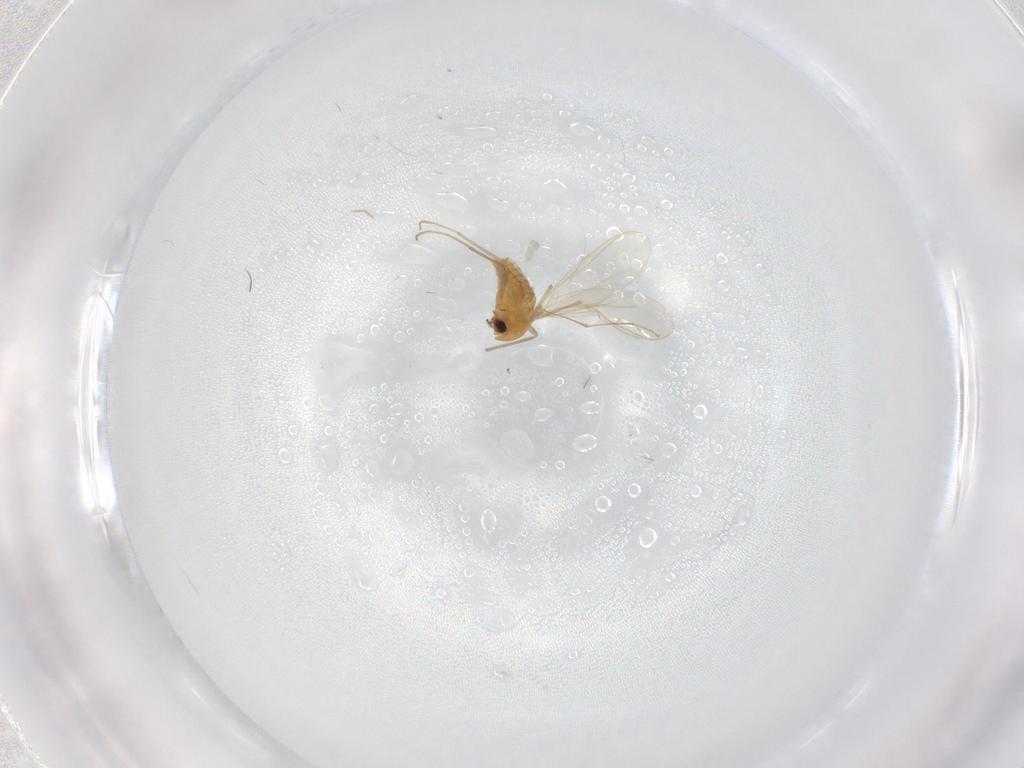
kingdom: Animalia
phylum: Arthropoda
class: Insecta
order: Diptera
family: Chironomidae
